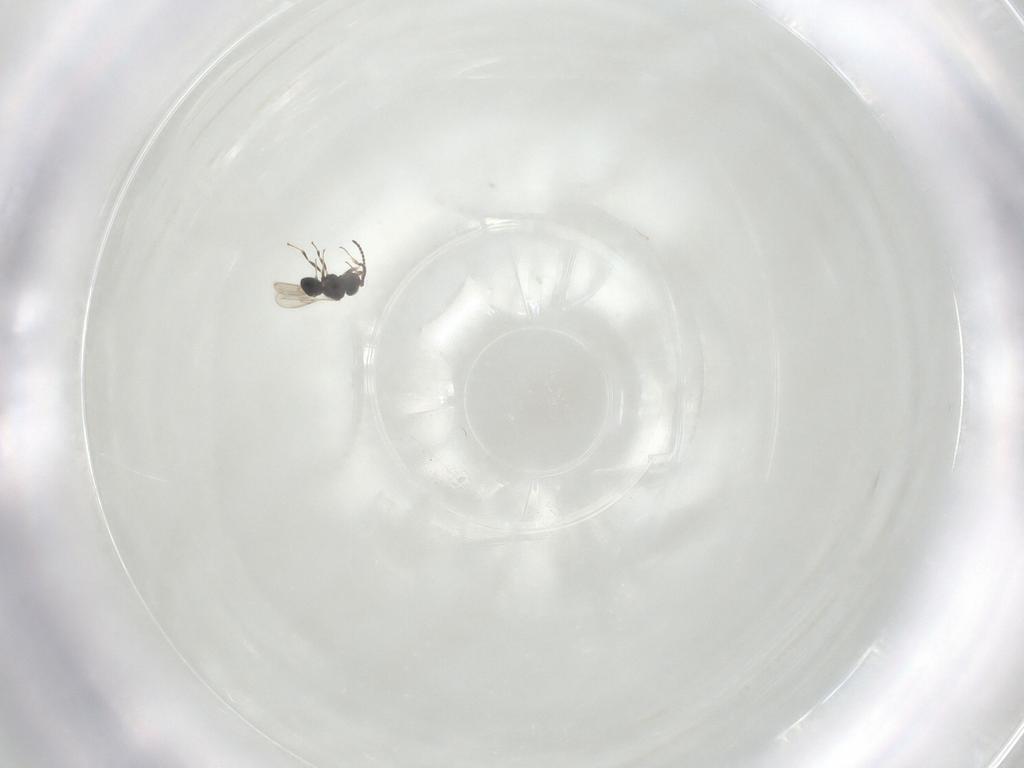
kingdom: Animalia
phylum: Arthropoda
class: Insecta
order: Hymenoptera
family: Scelionidae
